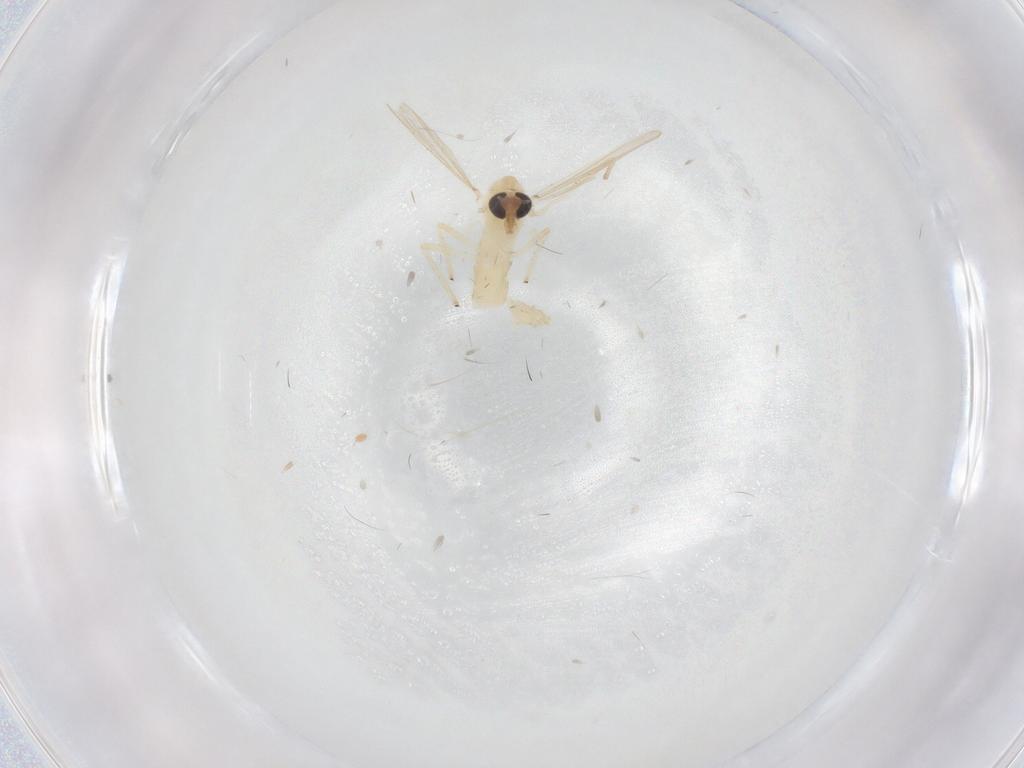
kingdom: Animalia
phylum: Arthropoda
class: Insecta
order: Diptera
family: Chironomidae
